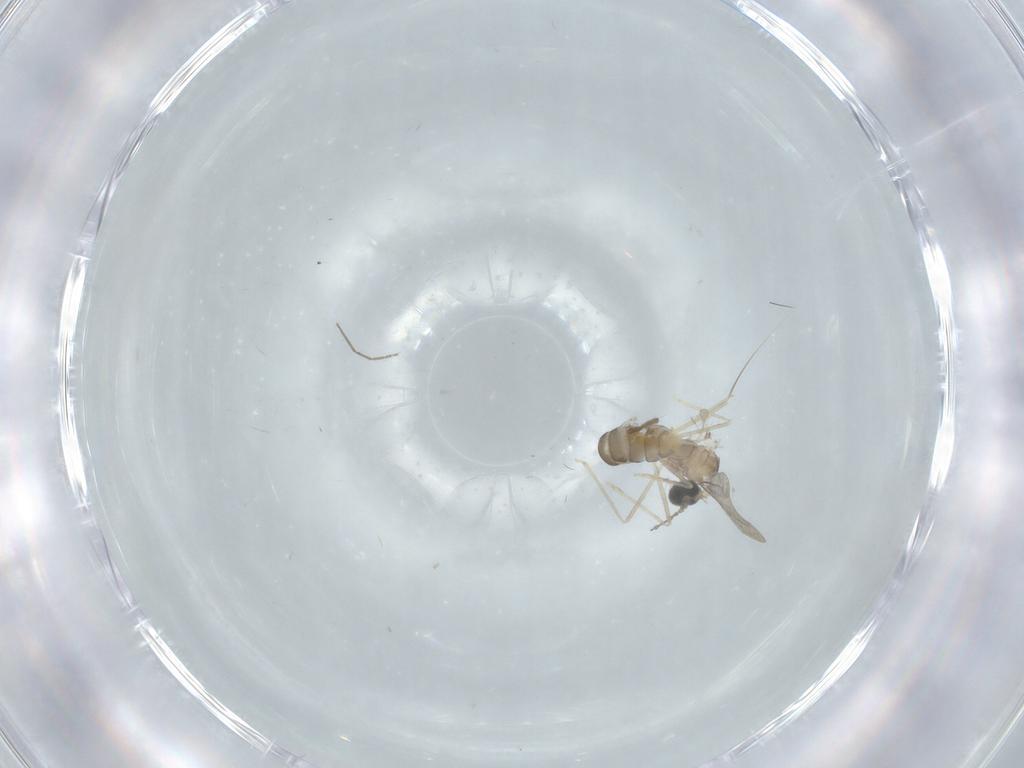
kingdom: Animalia
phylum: Arthropoda
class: Insecta
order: Diptera
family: Cecidomyiidae
